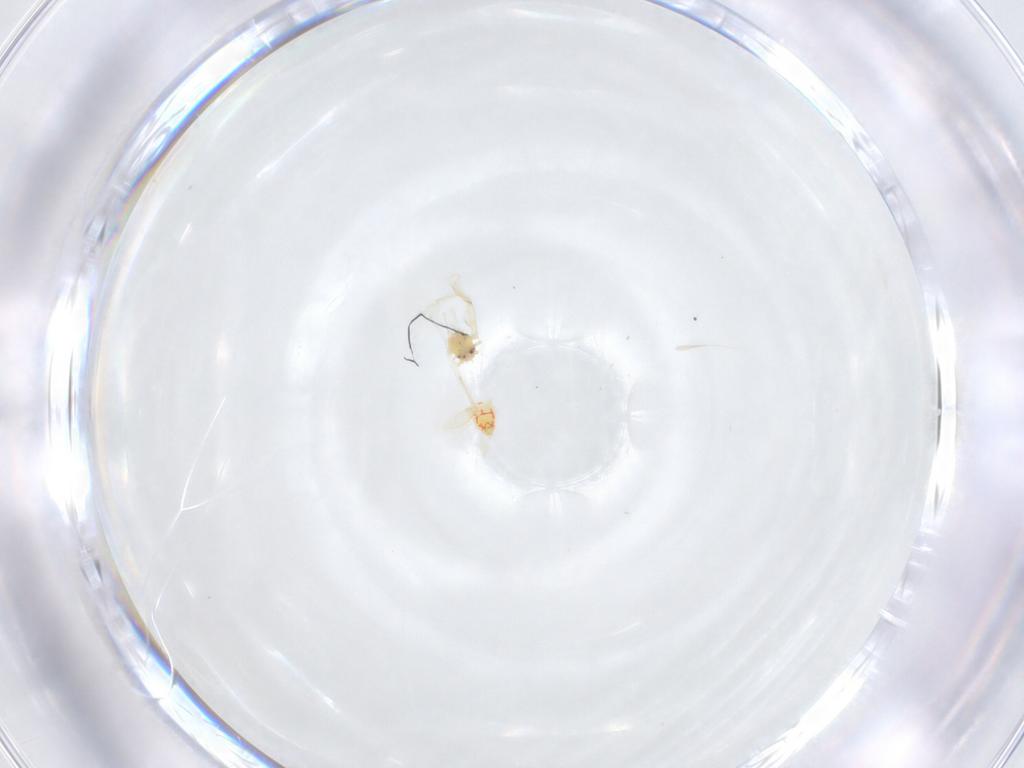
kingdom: Animalia
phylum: Arthropoda
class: Insecta
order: Hemiptera
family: Aleyrodidae
